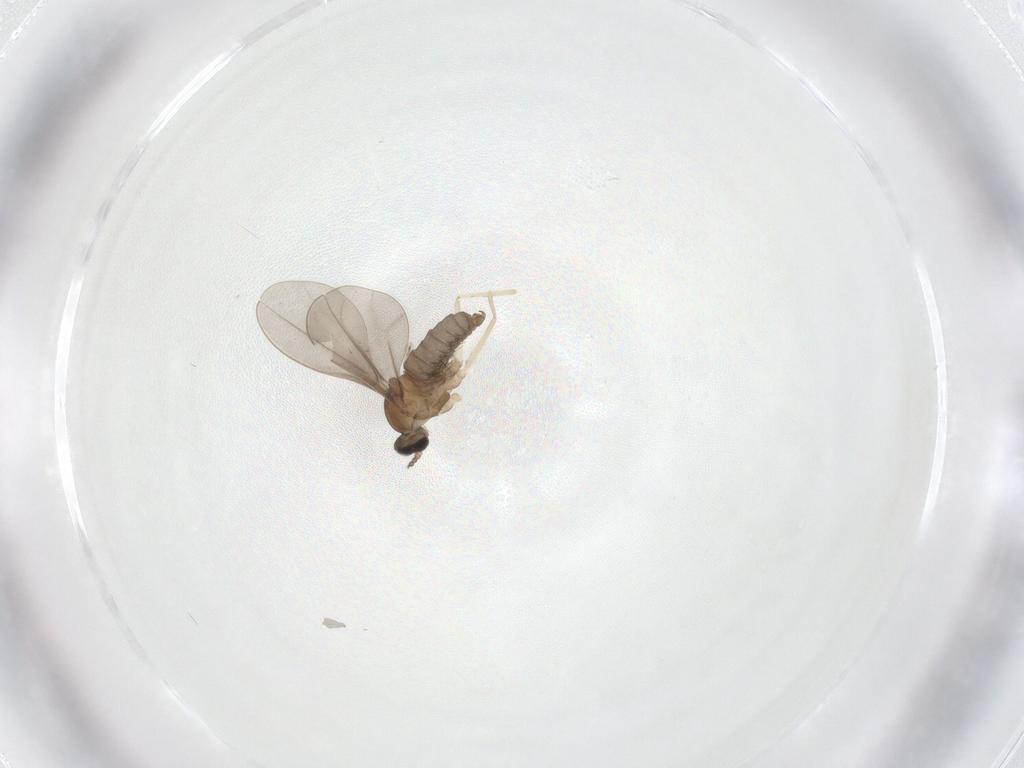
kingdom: Animalia
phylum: Arthropoda
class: Insecta
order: Diptera
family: Cecidomyiidae
